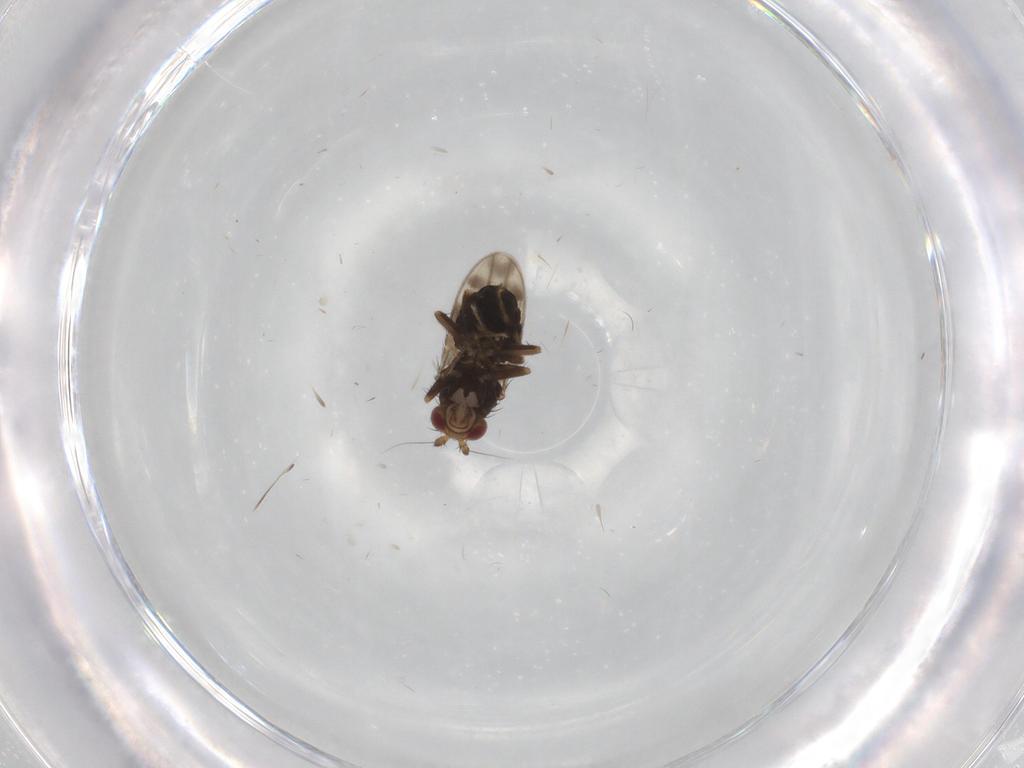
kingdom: Animalia
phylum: Arthropoda
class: Insecta
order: Diptera
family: Sphaeroceridae
